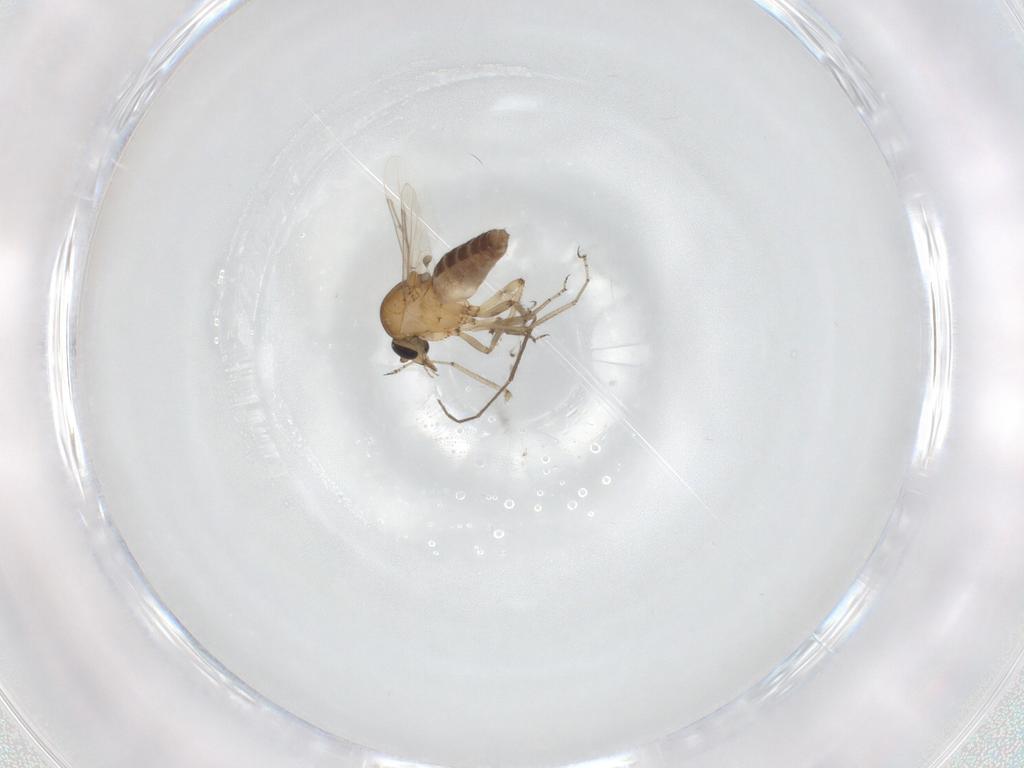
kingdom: Animalia
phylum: Arthropoda
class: Insecta
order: Diptera
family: Ceratopogonidae
